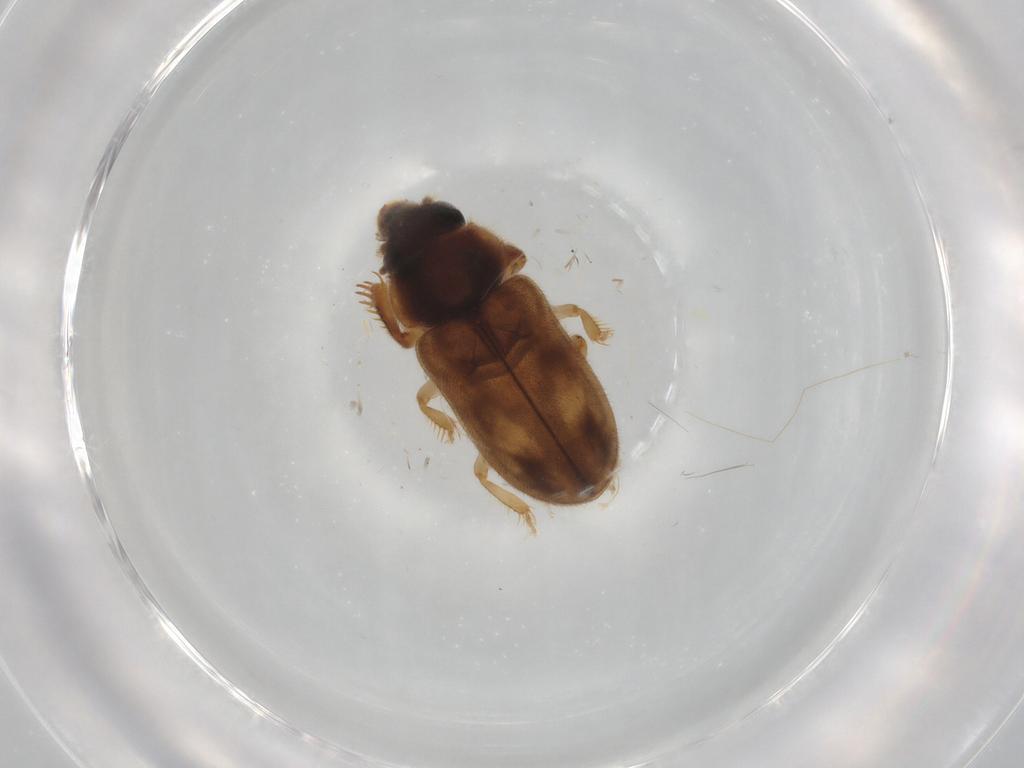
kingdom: Animalia
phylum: Arthropoda
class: Insecta
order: Coleoptera
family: Heteroceridae
